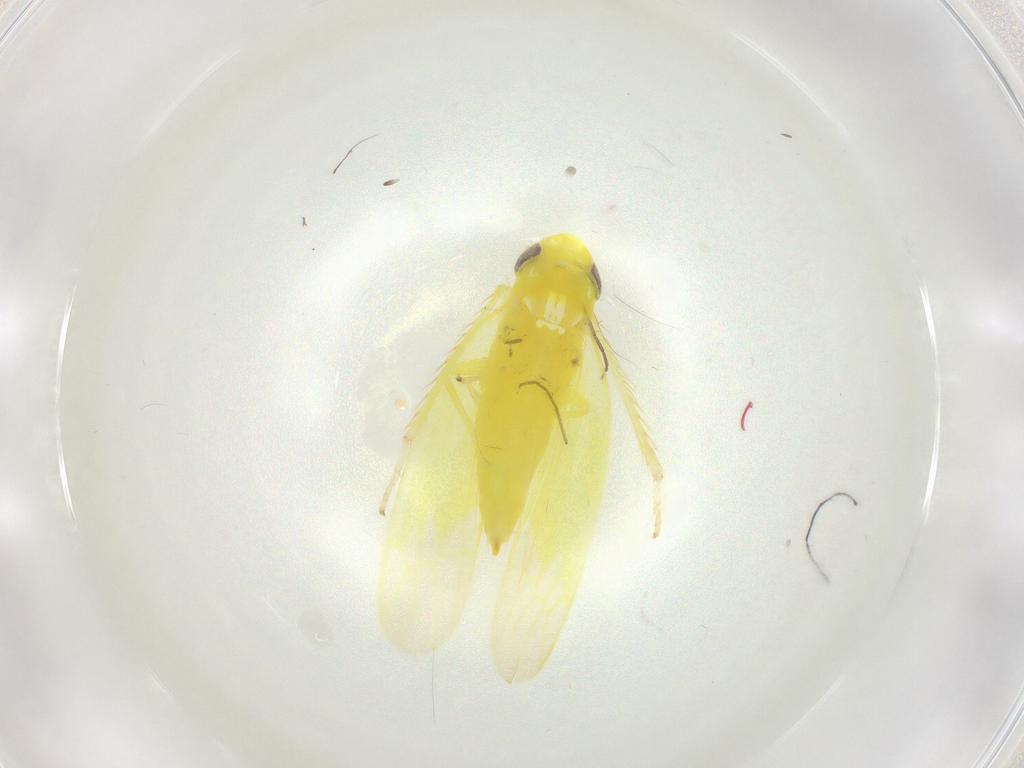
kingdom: Animalia
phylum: Arthropoda
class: Insecta
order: Hemiptera
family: Cicadellidae
